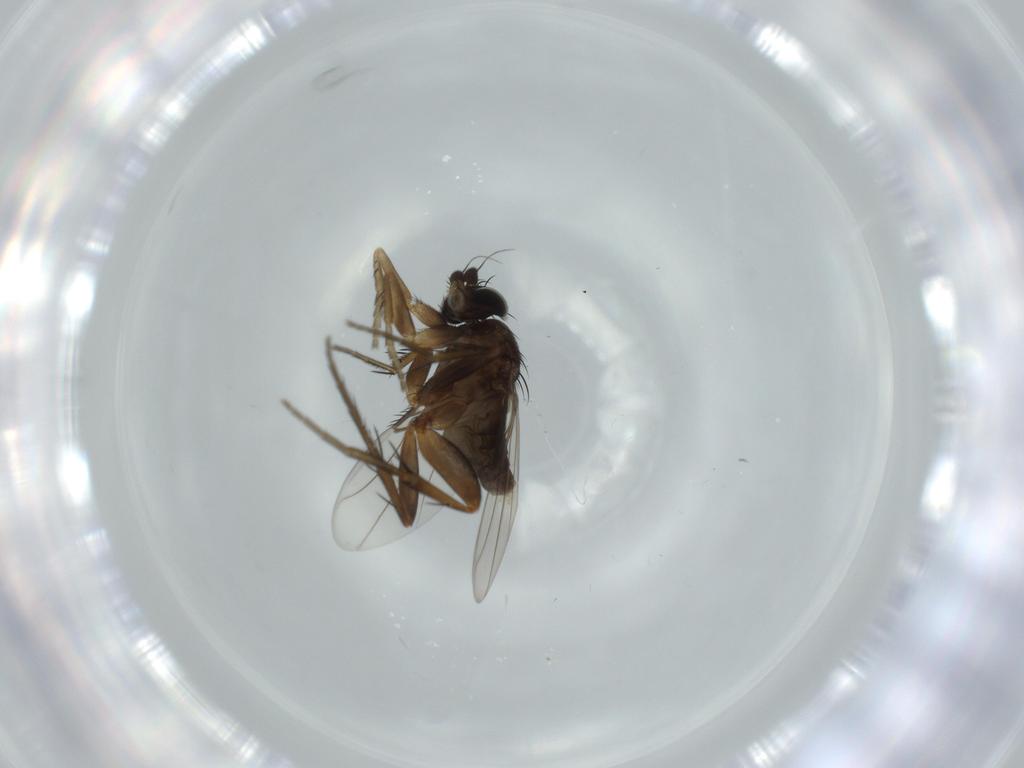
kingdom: Animalia
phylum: Arthropoda
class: Insecta
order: Diptera
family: Phoridae
